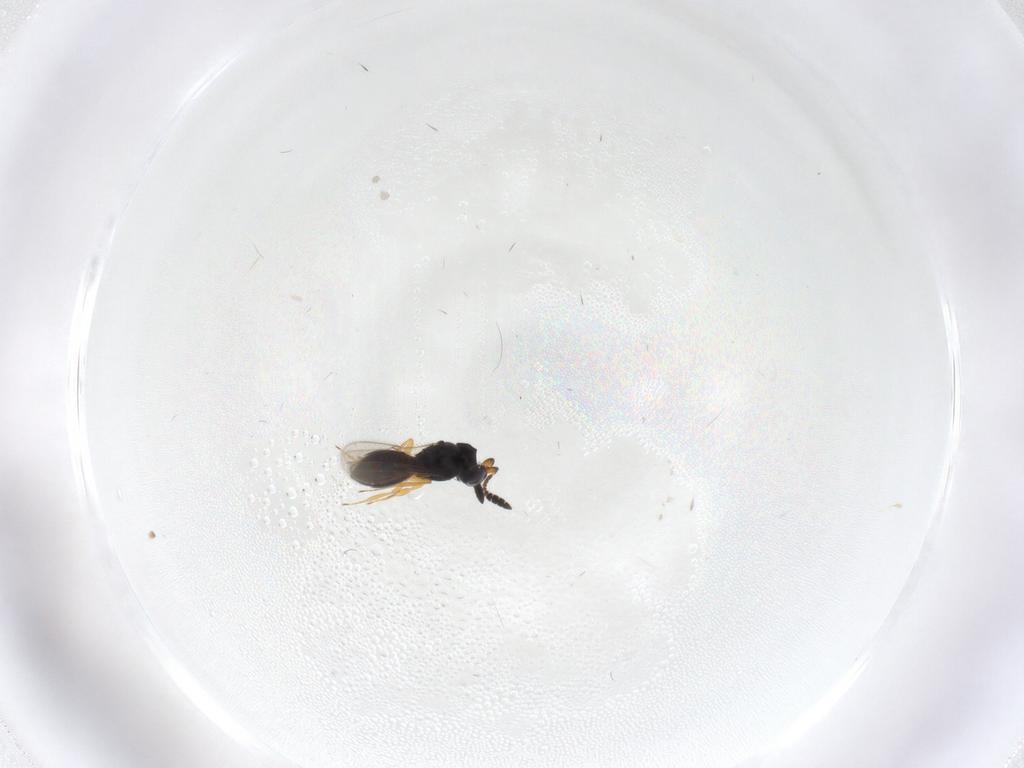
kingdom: Animalia
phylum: Arthropoda
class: Insecta
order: Hymenoptera
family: Scelionidae
